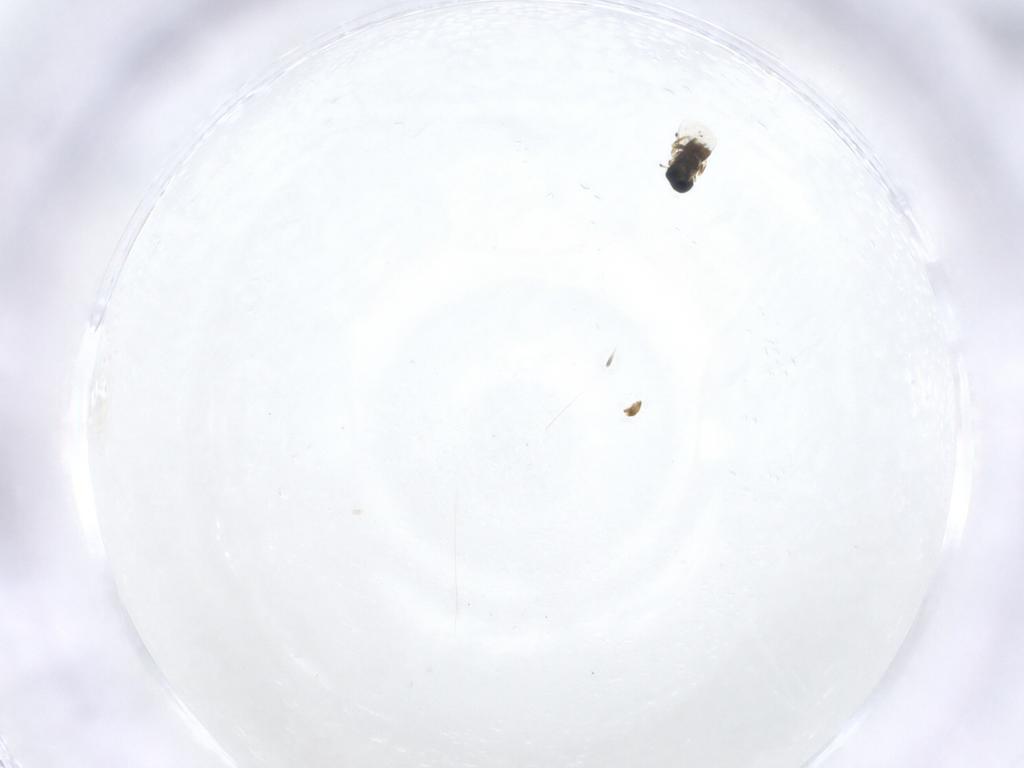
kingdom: Animalia
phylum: Arthropoda
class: Insecta
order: Hymenoptera
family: Eulophidae
